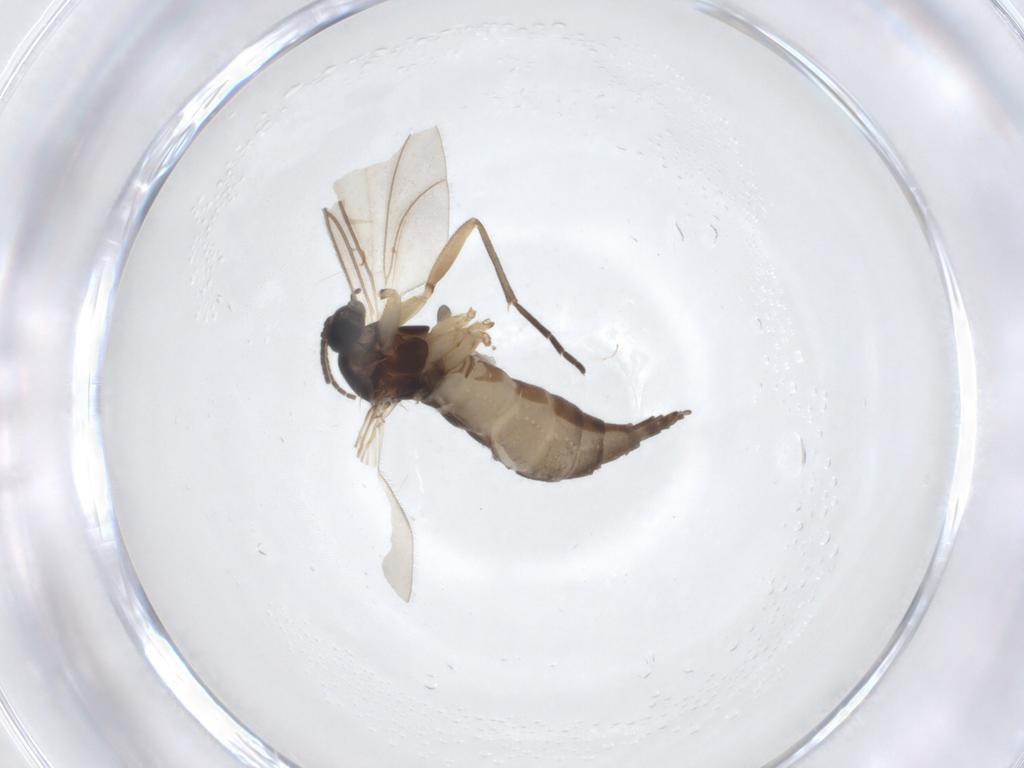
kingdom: Animalia
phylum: Arthropoda
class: Insecta
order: Diptera
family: Sciaridae
